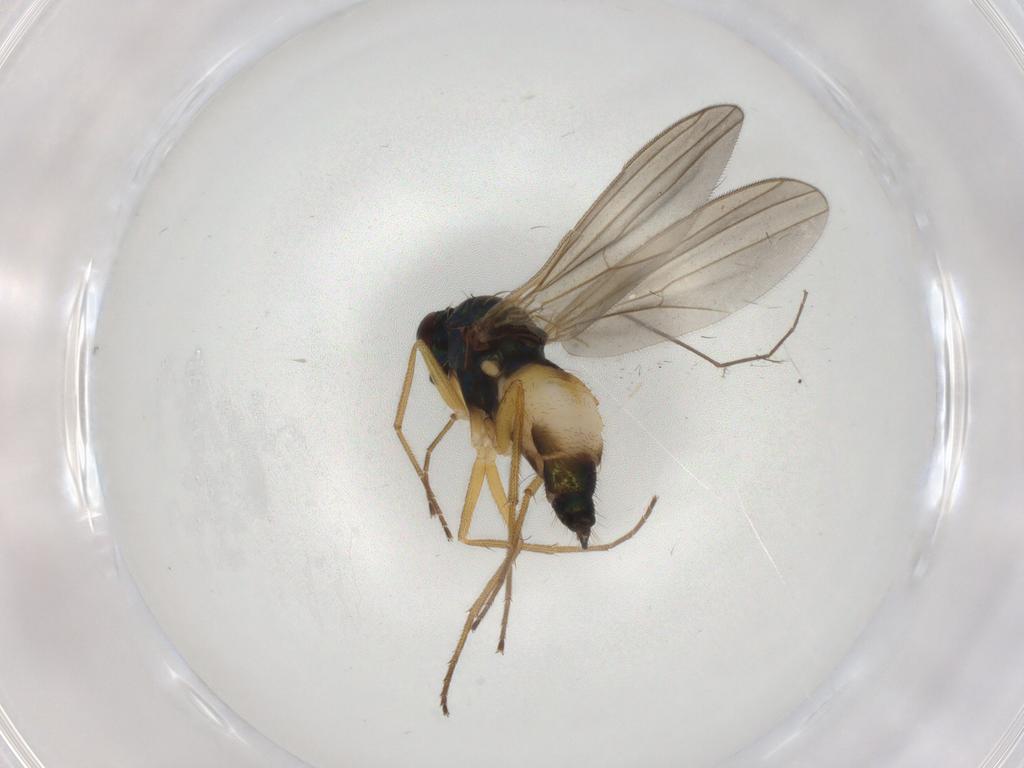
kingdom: Animalia
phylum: Arthropoda
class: Insecta
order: Diptera
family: Dolichopodidae
